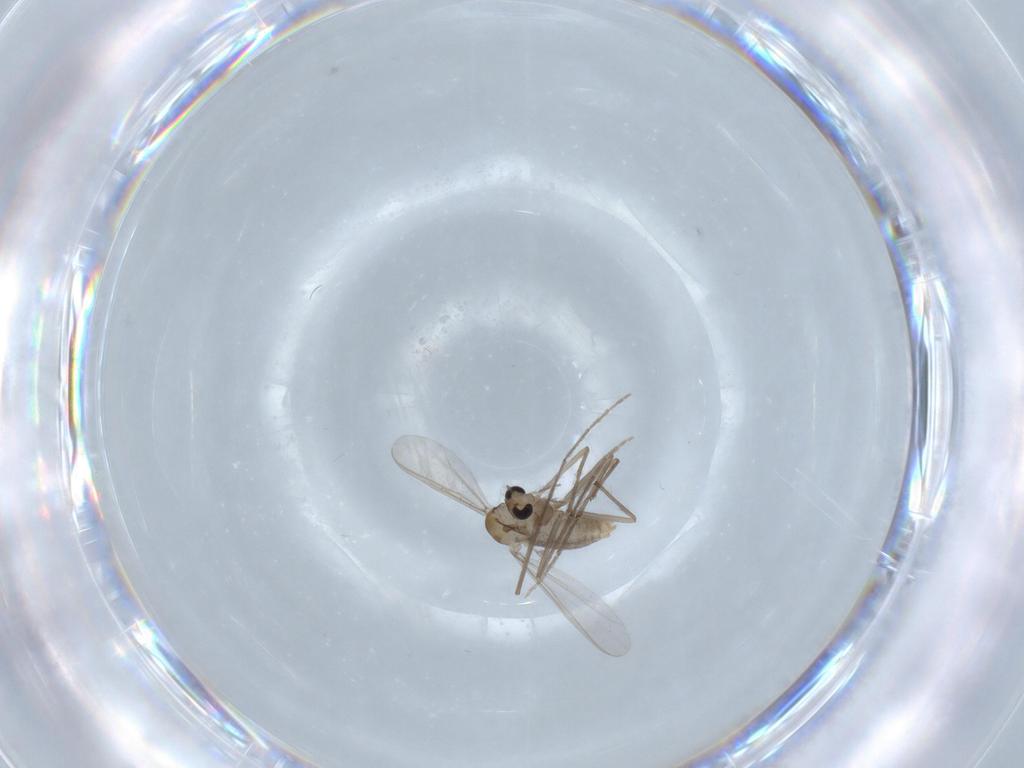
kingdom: Animalia
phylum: Arthropoda
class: Insecta
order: Diptera
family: Chironomidae
